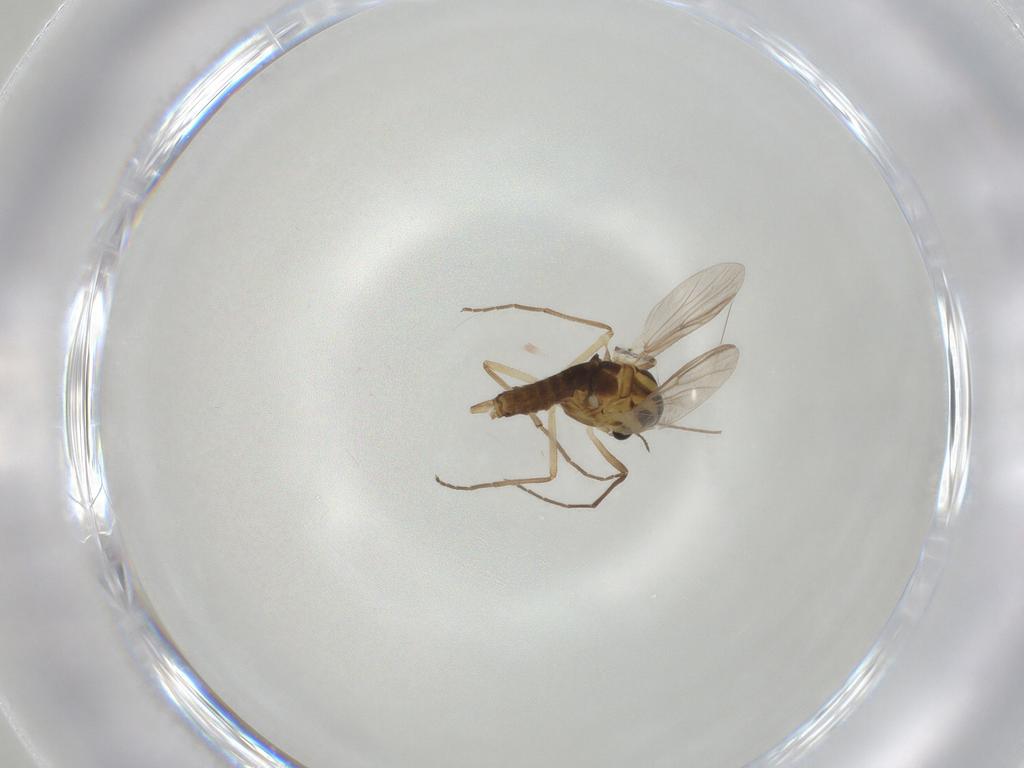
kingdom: Animalia
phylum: Arthropoda
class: Insecta
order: Diptera
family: Chironomidae
